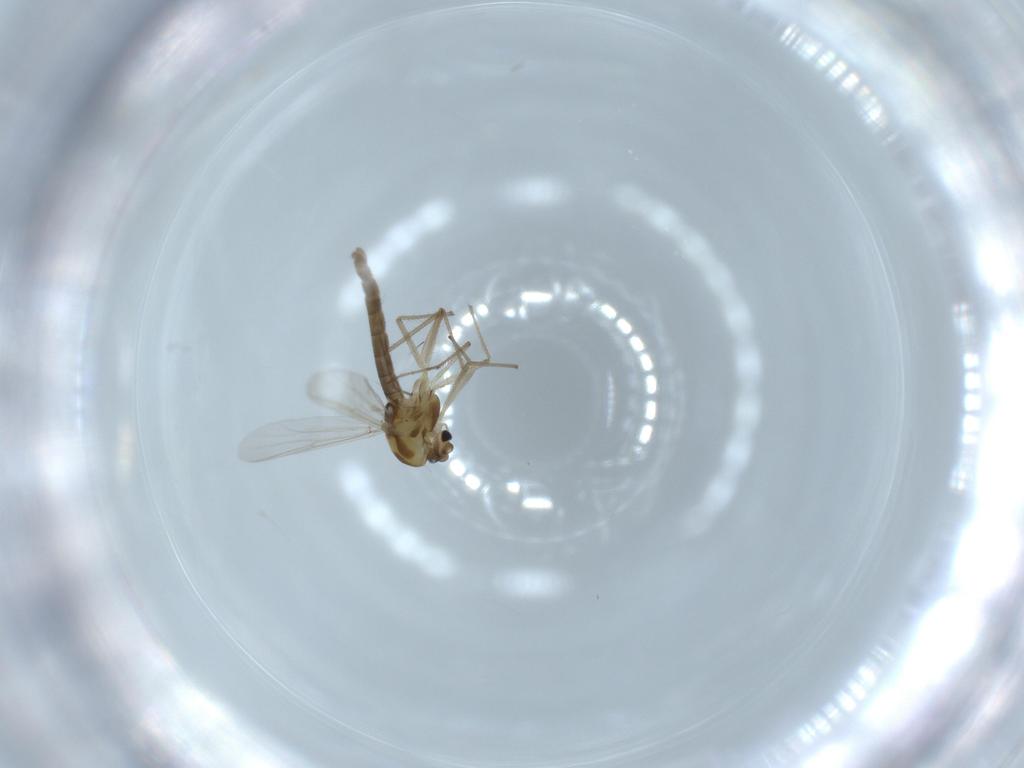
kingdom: Animalia
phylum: Arthropoda
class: Insecta
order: Diptera
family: Chironomidae
